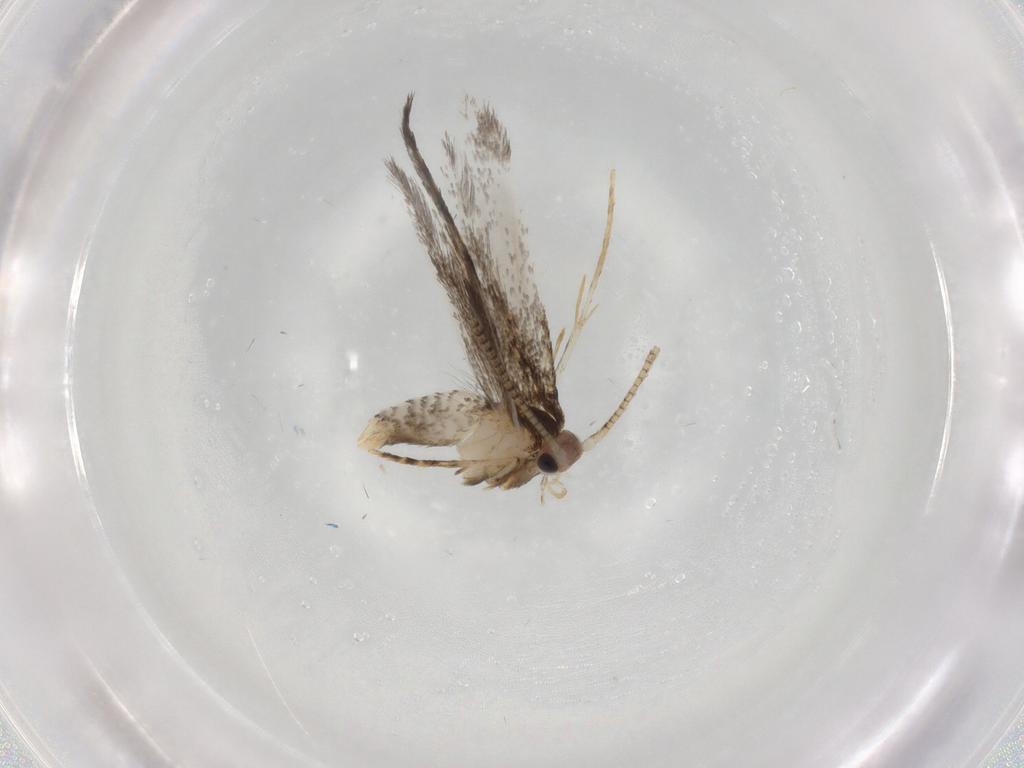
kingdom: Animalia
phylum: Arthropoda
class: Insecta
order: Lepidoptera
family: Tineidae
